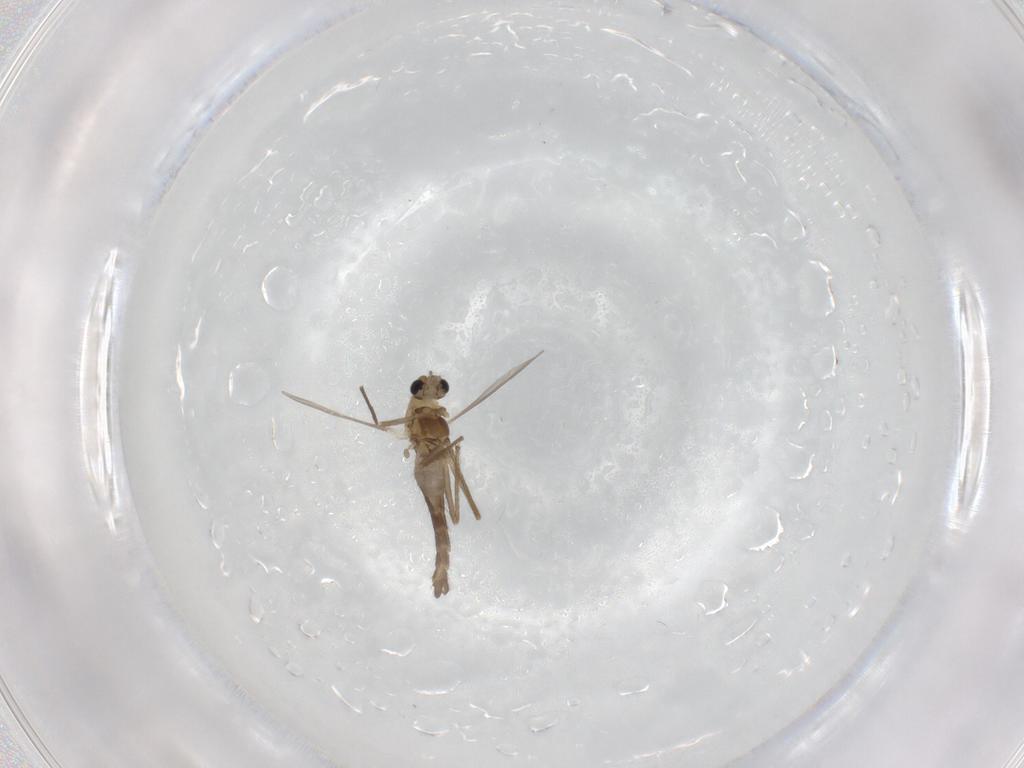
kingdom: Animalia
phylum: Arthropoda
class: Insecta
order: Diptera
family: Chironomidae
